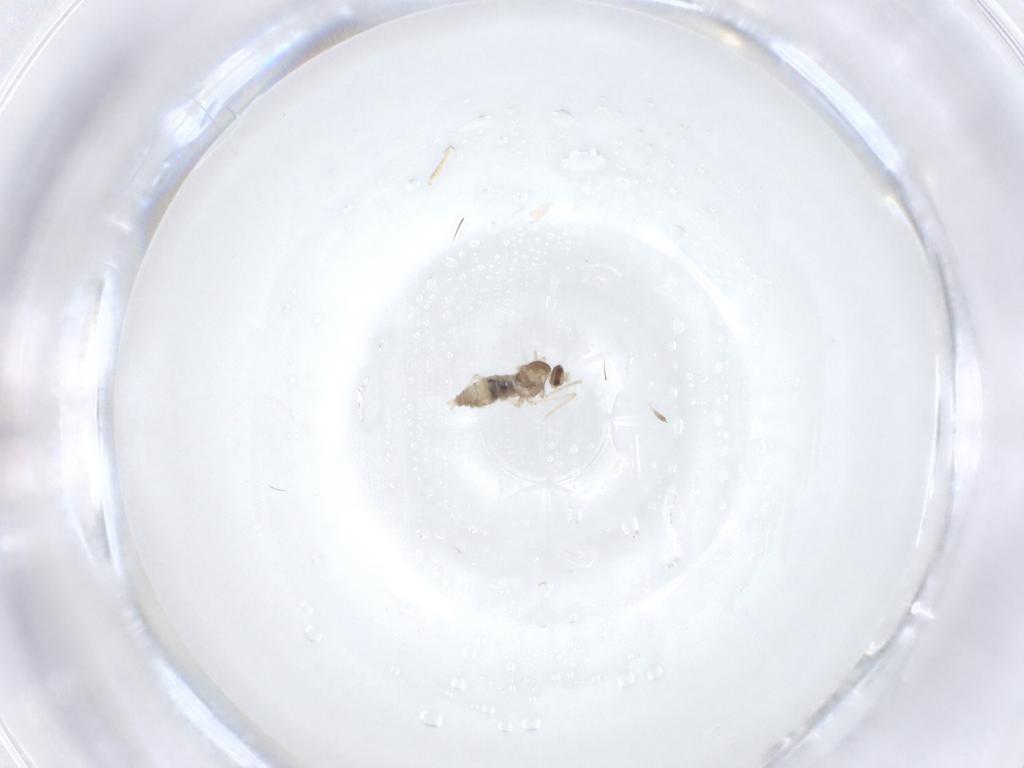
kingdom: Animalia
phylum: Arthropoda
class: Insecta
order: Diptera
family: Cecidomyiidae
